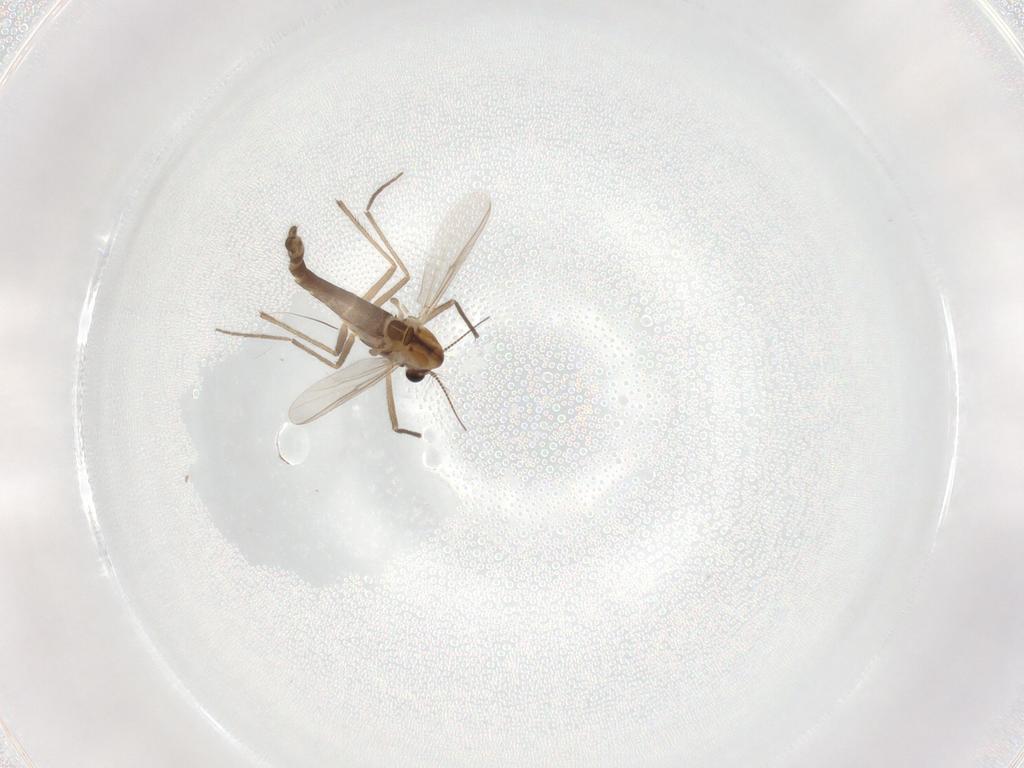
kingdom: Animalia
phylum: Arthropoda
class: Insecta
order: Diptera
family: Chironomidae
